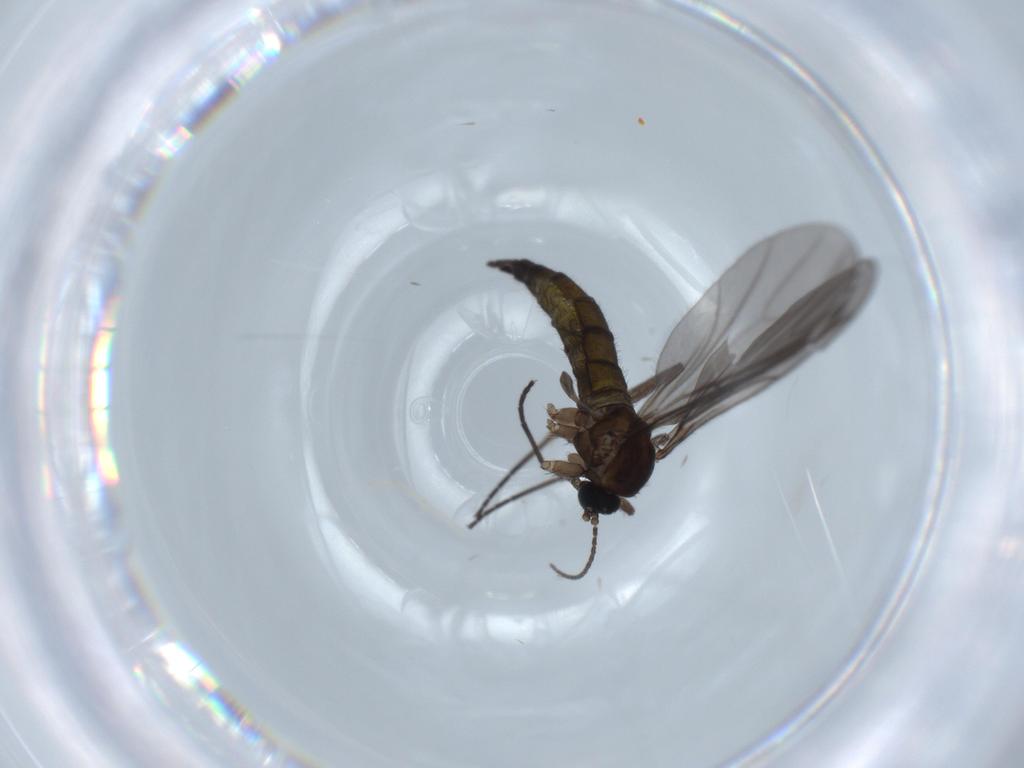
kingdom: Animalia
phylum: Arthropoda
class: Insecta
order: Diptera
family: Sciaridae
